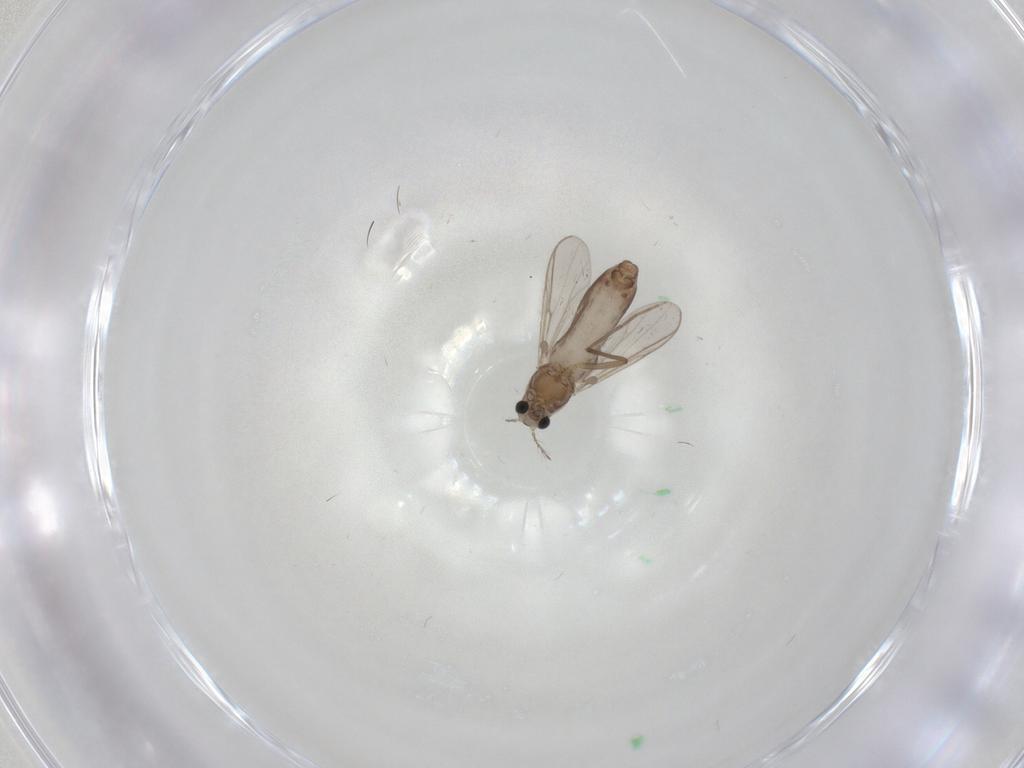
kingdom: Animalia
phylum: Arthropoda
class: Insecta
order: Diptera
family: Chironomidae
